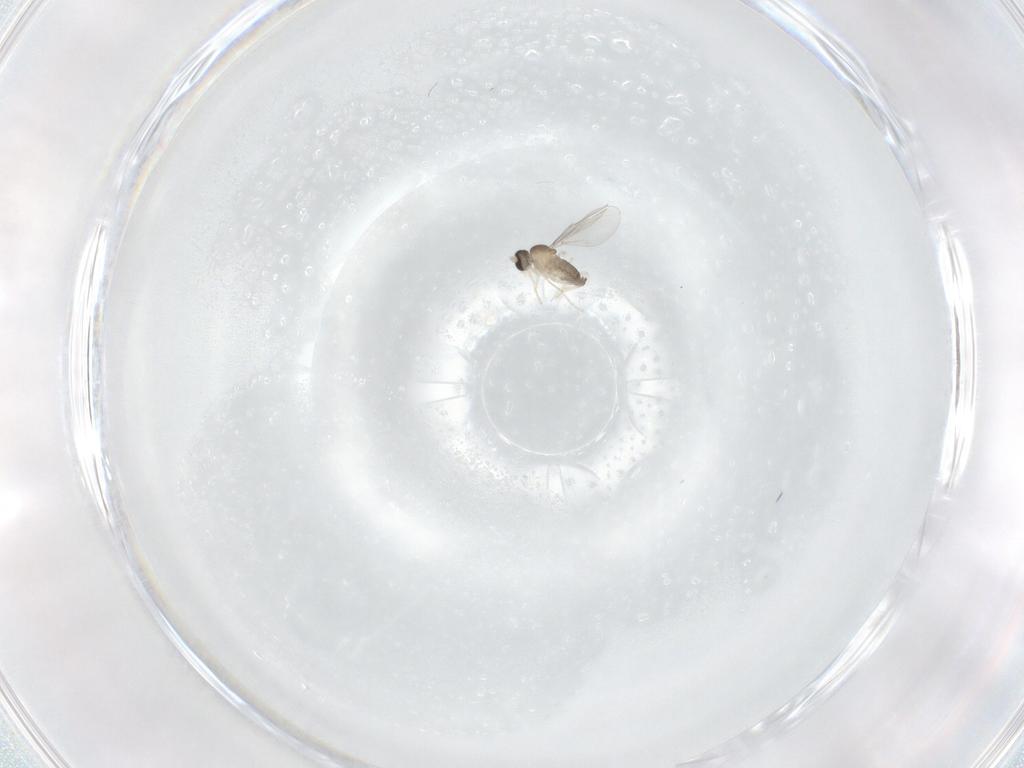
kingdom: Animalia
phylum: Arthropoda
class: Insecta
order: Diptera
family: Cecidomyiidae
